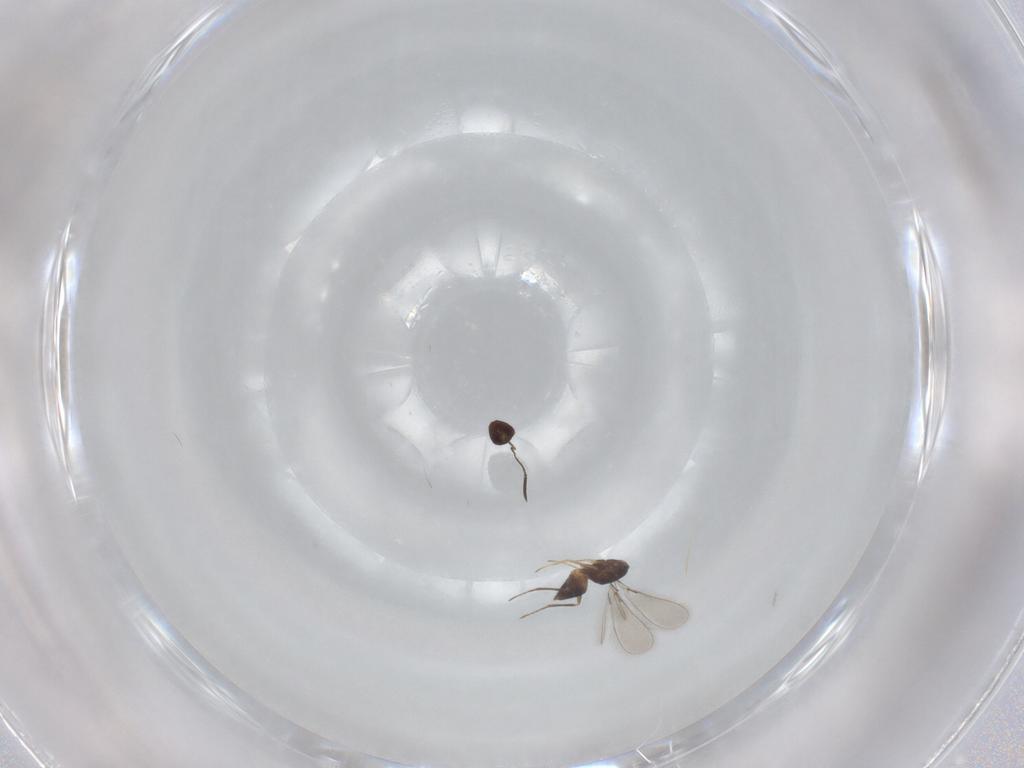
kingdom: Animalia
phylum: Arthropoda
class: Insecta
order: Hymenoptera
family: Mymaridae
